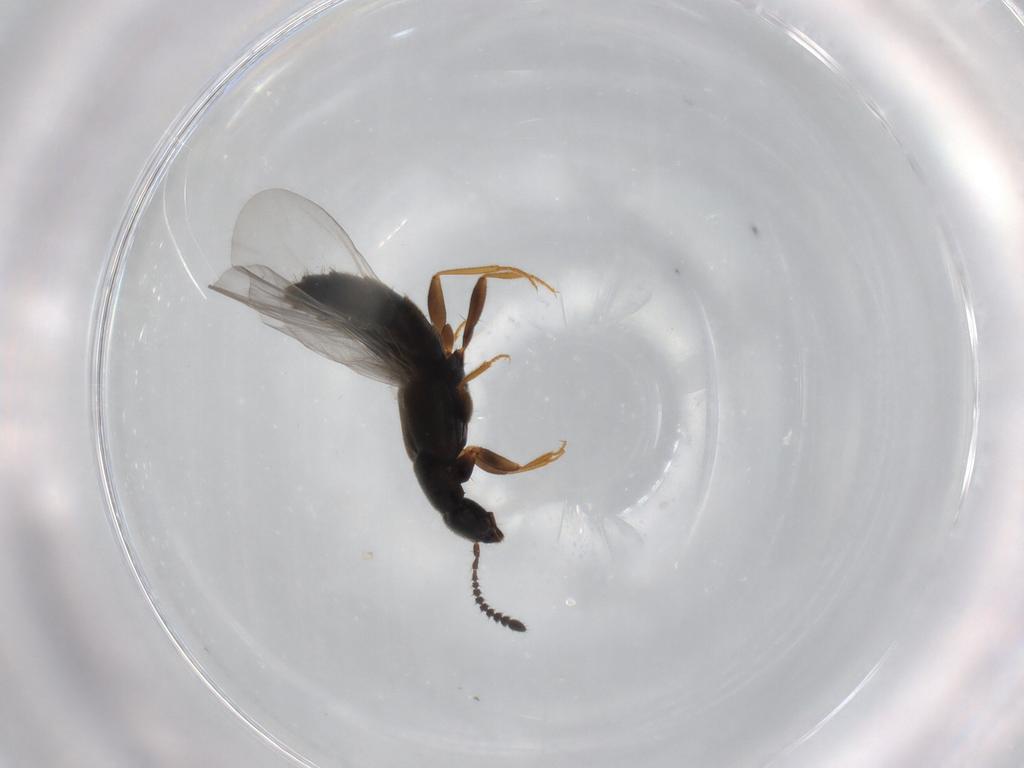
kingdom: Animalia
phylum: Arthropoda
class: Insecta
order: Coleoptera
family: Staphylinidae
